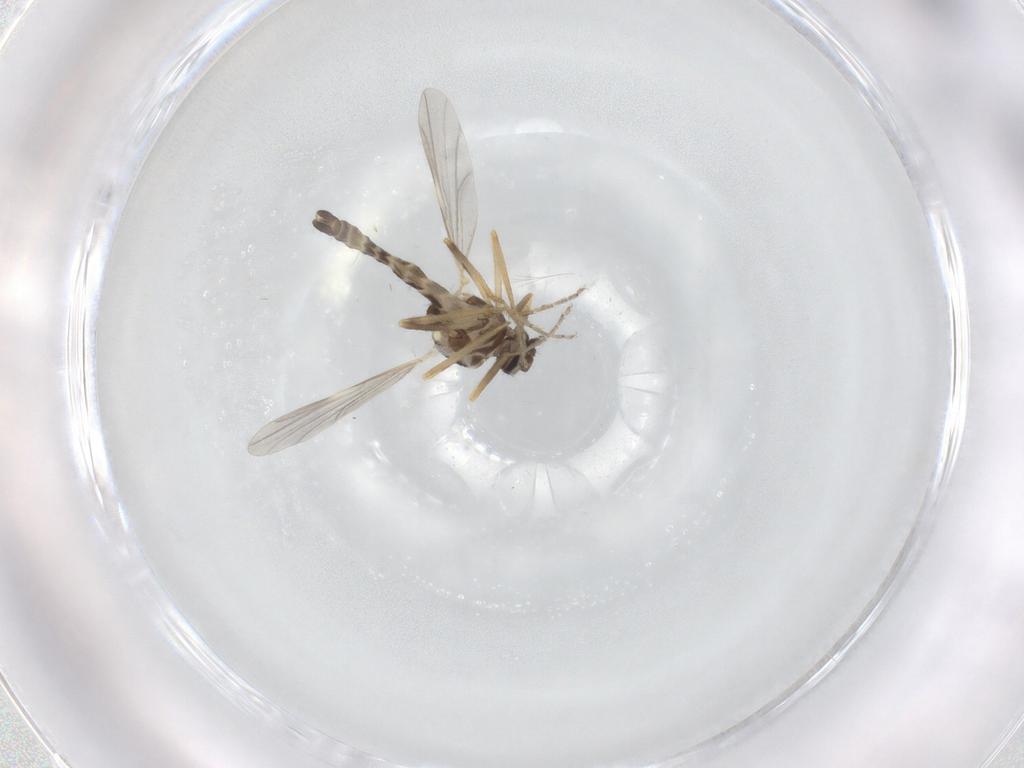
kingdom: Animalia
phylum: Arthropoda
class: Insecta
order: Diptera
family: Ceratopogonidae
